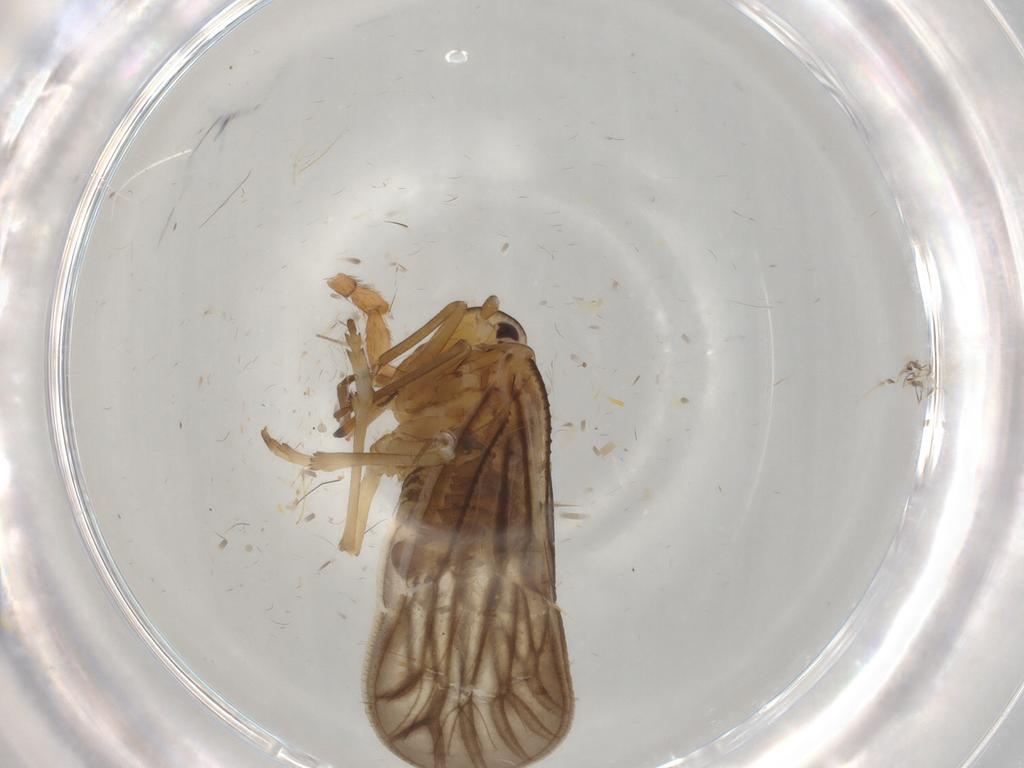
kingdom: Animalia
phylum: Arthropoda
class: Insecta
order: Hemiptera
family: Meenoplidae
